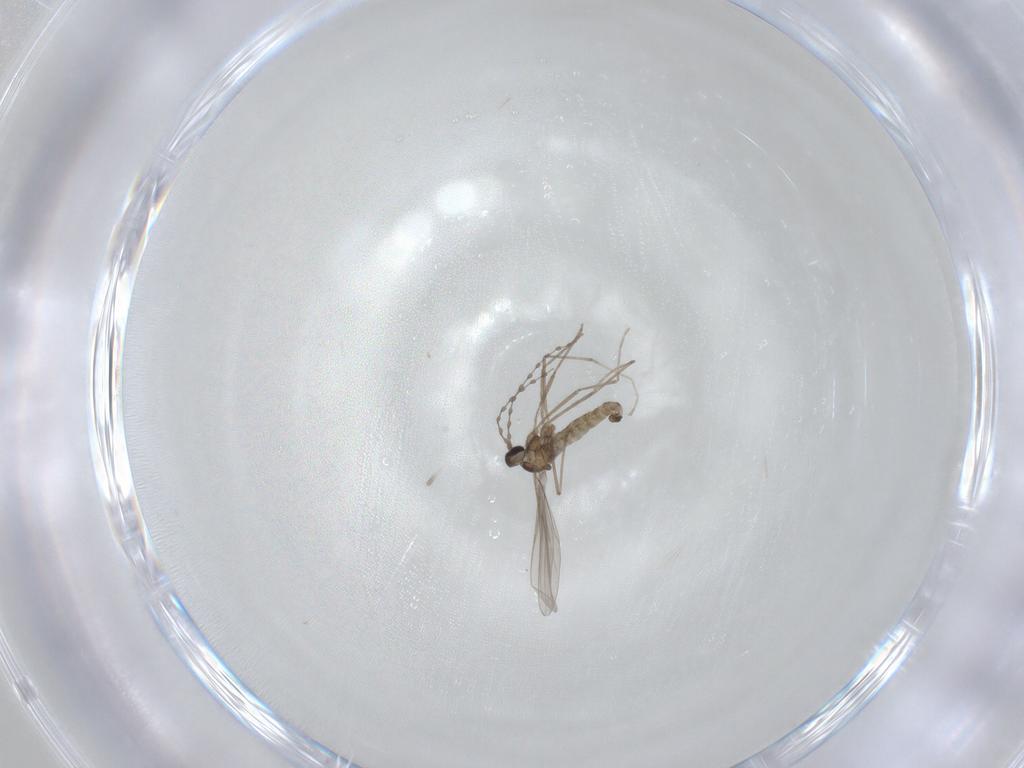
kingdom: Animalia
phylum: Arthropoda
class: Insecta
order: Diptera
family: Cecidomyiidae
